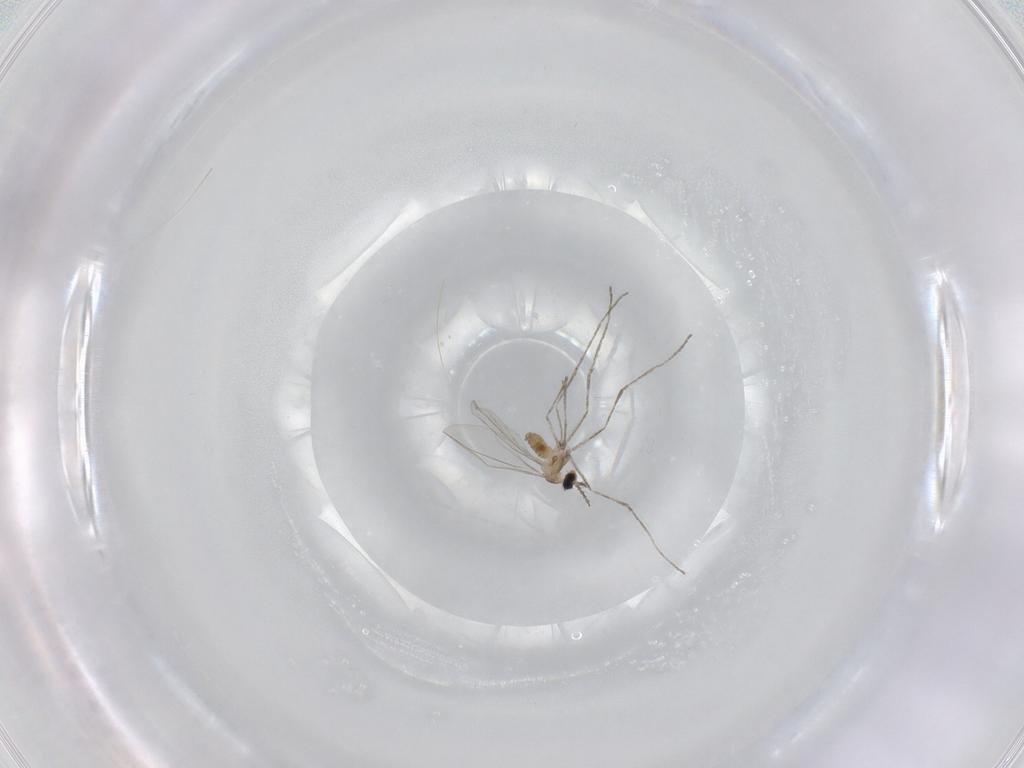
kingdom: Animalia
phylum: Arthropoda
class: Insecta
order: Diptera
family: Cecidomyiidae
